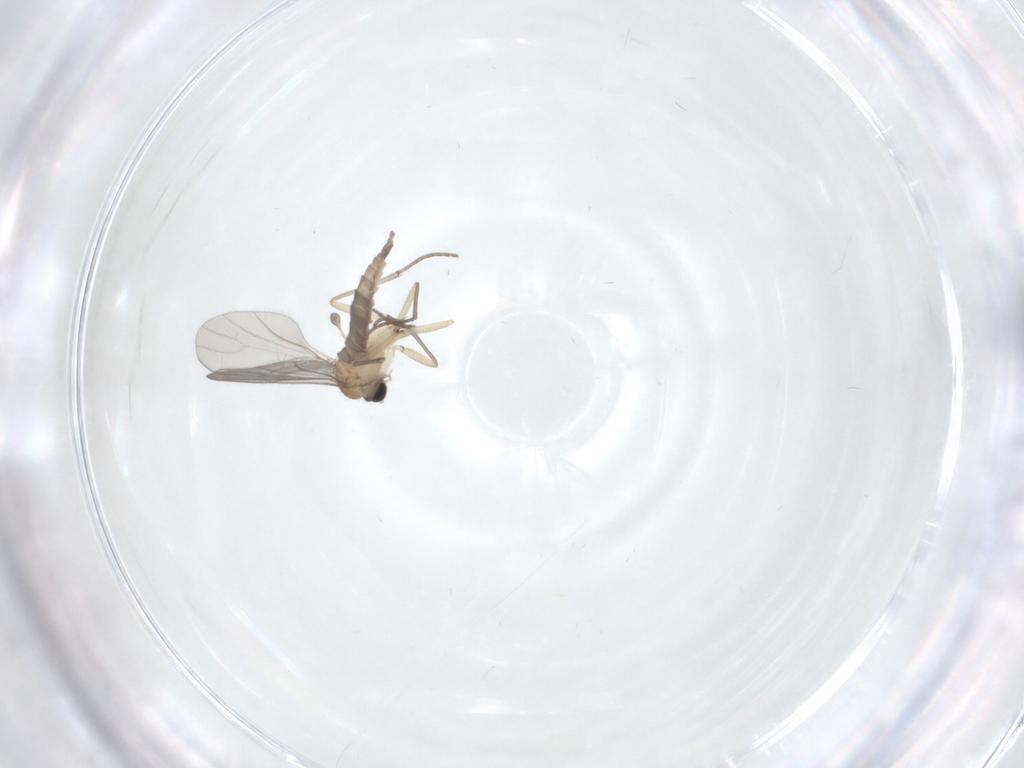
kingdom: Animalia
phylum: Arthropoda
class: Insecta
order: Diptera
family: Sciaridae
